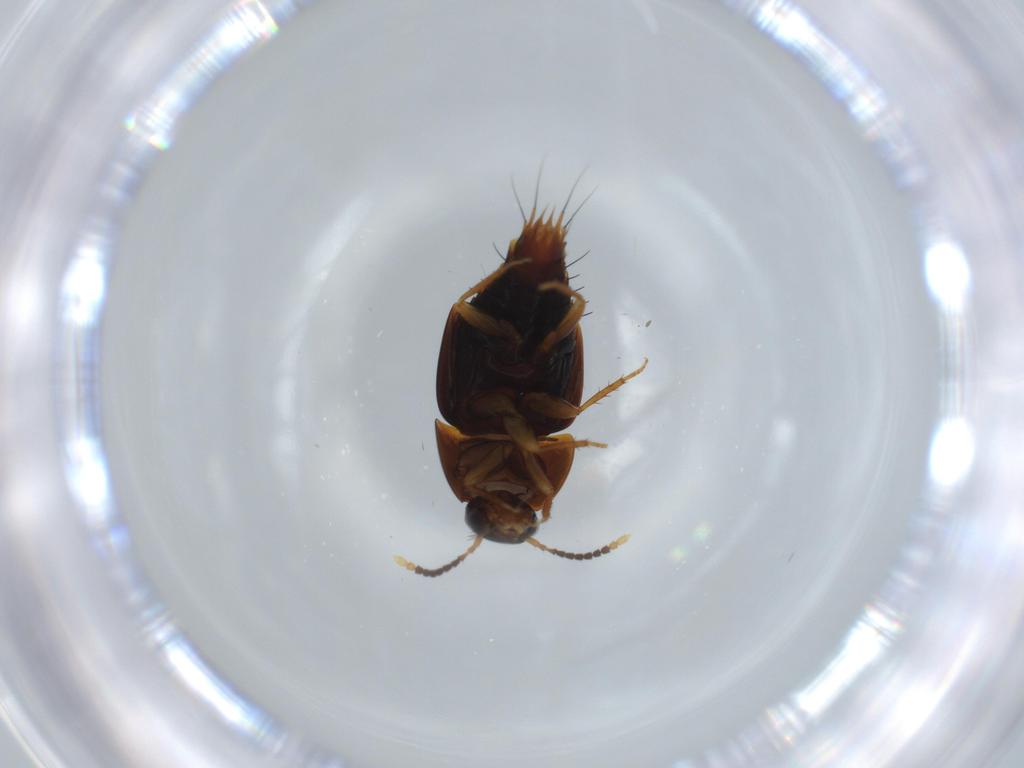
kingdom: Animalia
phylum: Arthropoda
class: Insecta
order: Coleoptera
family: Staphylinidae
